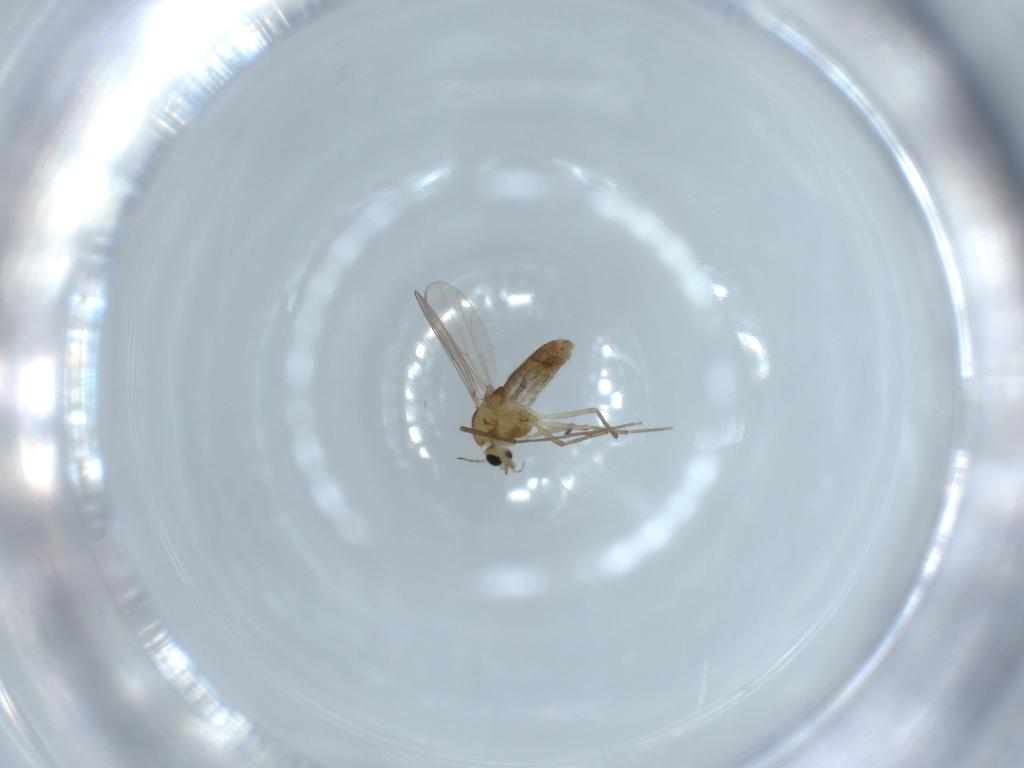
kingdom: Animalia
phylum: Arthropoda
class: Insecta
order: Diptera
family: Chironomidae
